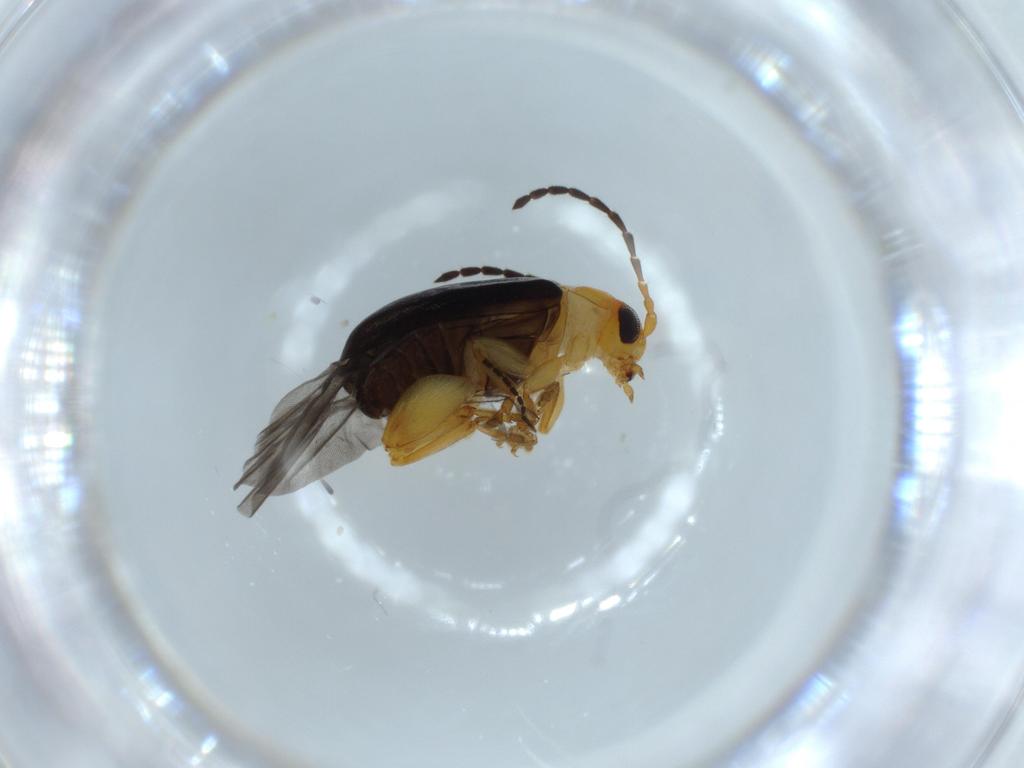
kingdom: Animalia
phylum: Arthropoda
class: Insecta
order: Coleoptera
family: Chrysomelidae
